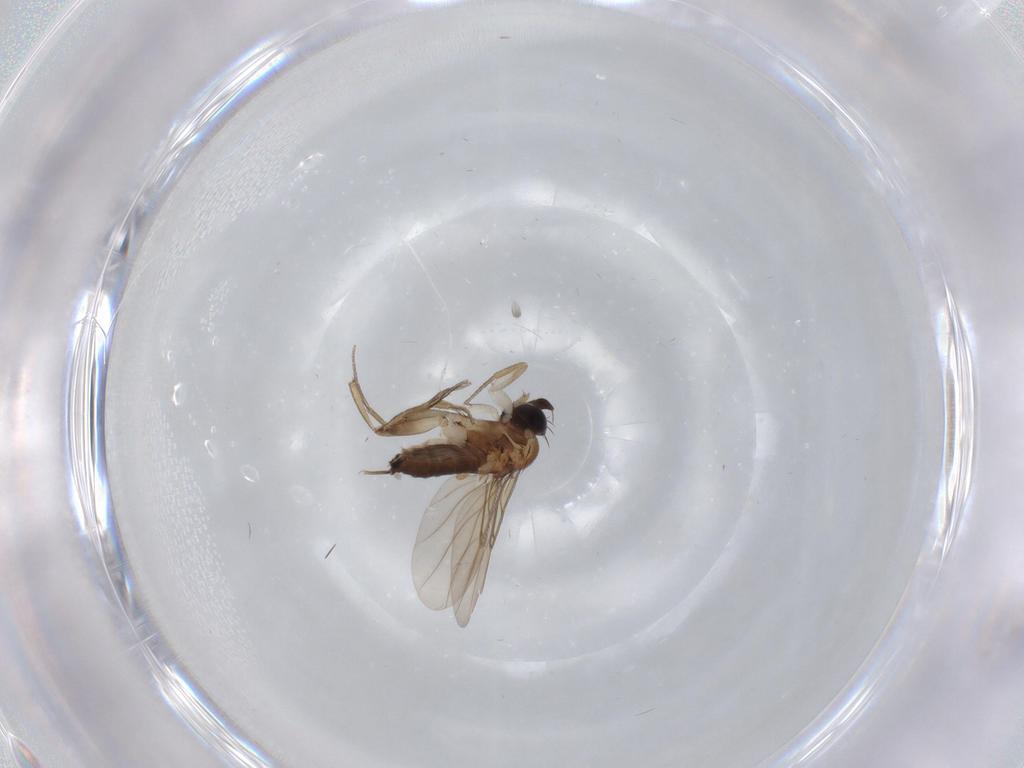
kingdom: Animalia
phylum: Arthropoda
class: Insecta
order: Diptera
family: Phoridae
